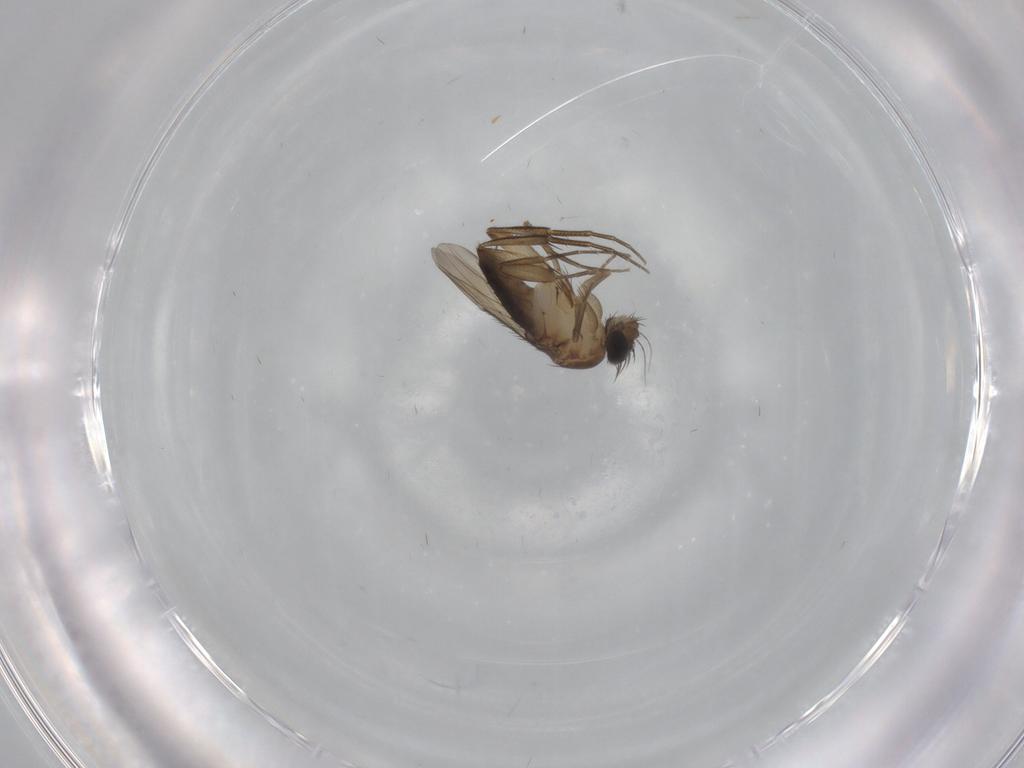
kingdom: Animalia
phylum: Arthropoda
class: Insecta
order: Diptera
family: Phoridae
